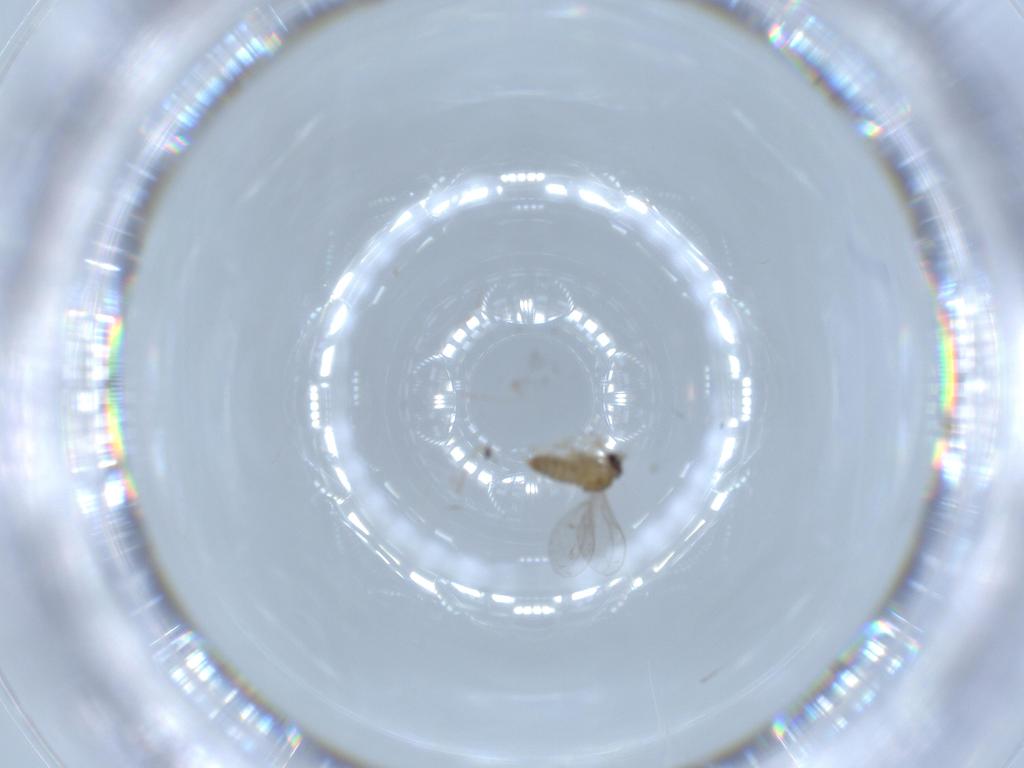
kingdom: Animalia
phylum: Arthropoda
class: Insecta
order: Diptera
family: Cecidomyiidae
